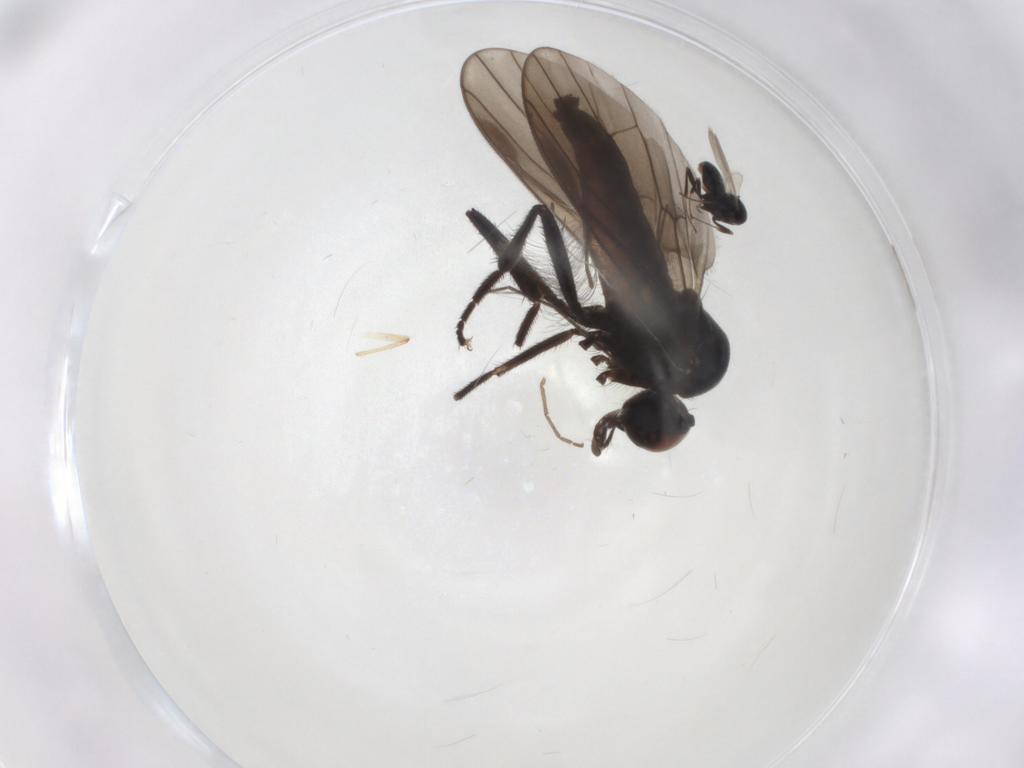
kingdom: Animalia
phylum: Arthropoda
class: Insecta
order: Diptera
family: Hybotidae
